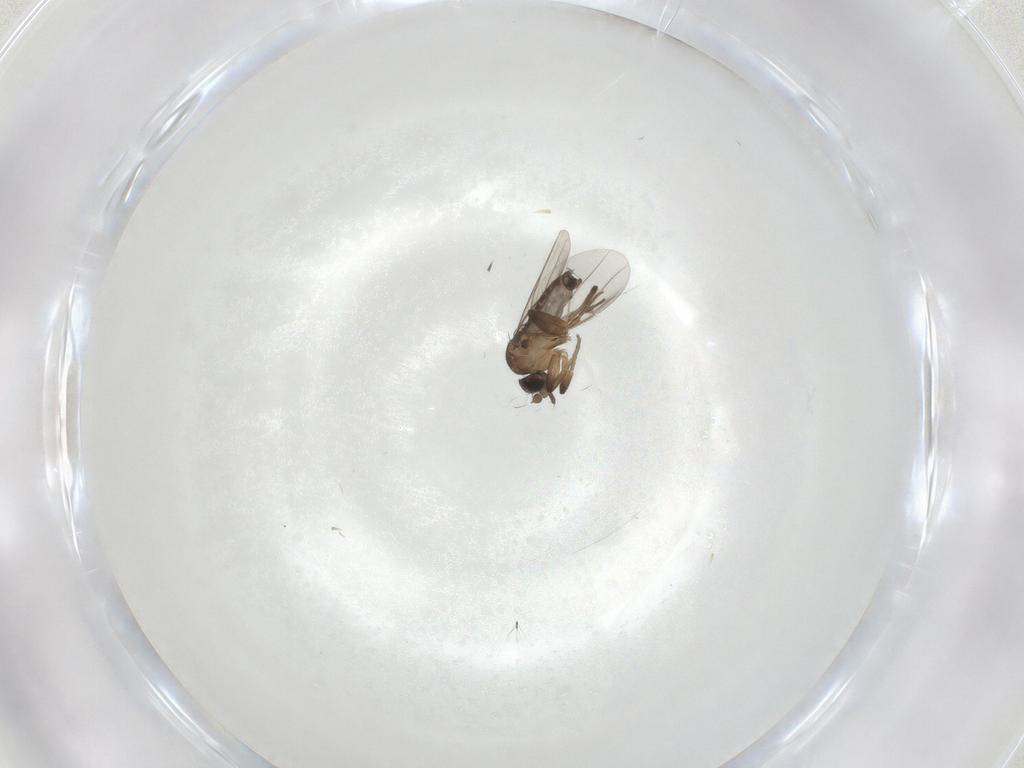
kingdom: Animalia
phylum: Arthropoda
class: Insecta
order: Diptera
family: Phoridae
